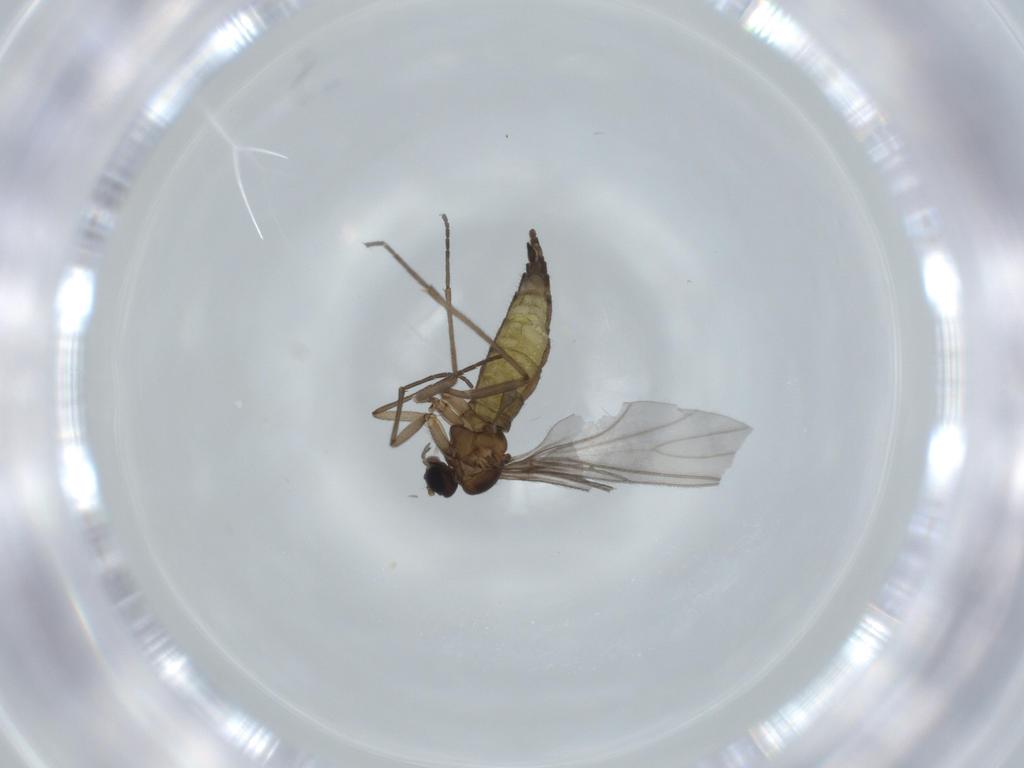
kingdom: Animalia
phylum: Arthropoda
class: Insecta
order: Diptera
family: Sciaridae
